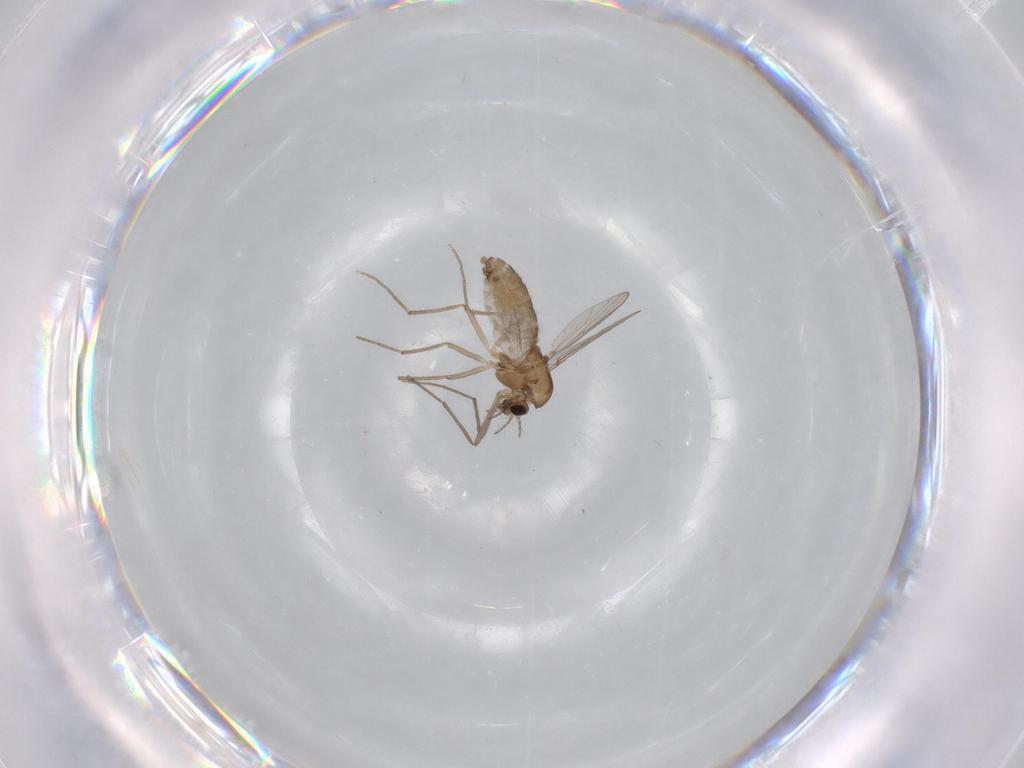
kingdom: Animalia
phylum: Arthropoda
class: Insecta
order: Diptera
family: Chironomidae
